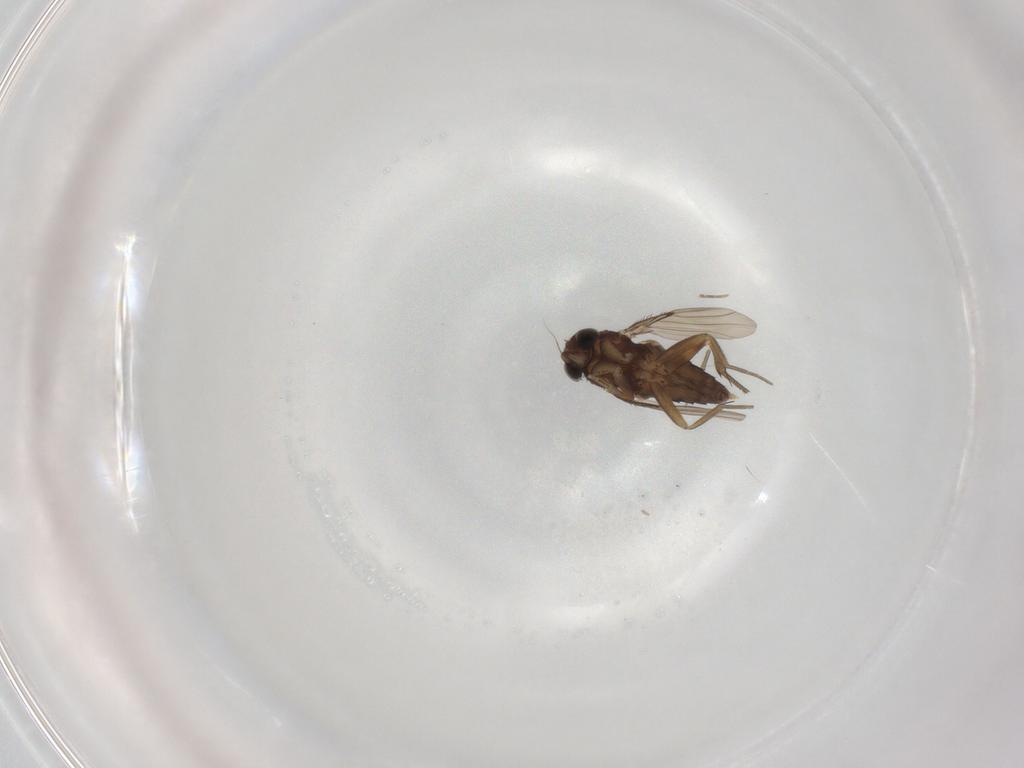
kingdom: Animalia
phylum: Arthropoda
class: Insecta
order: Diptera
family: Phoridae
